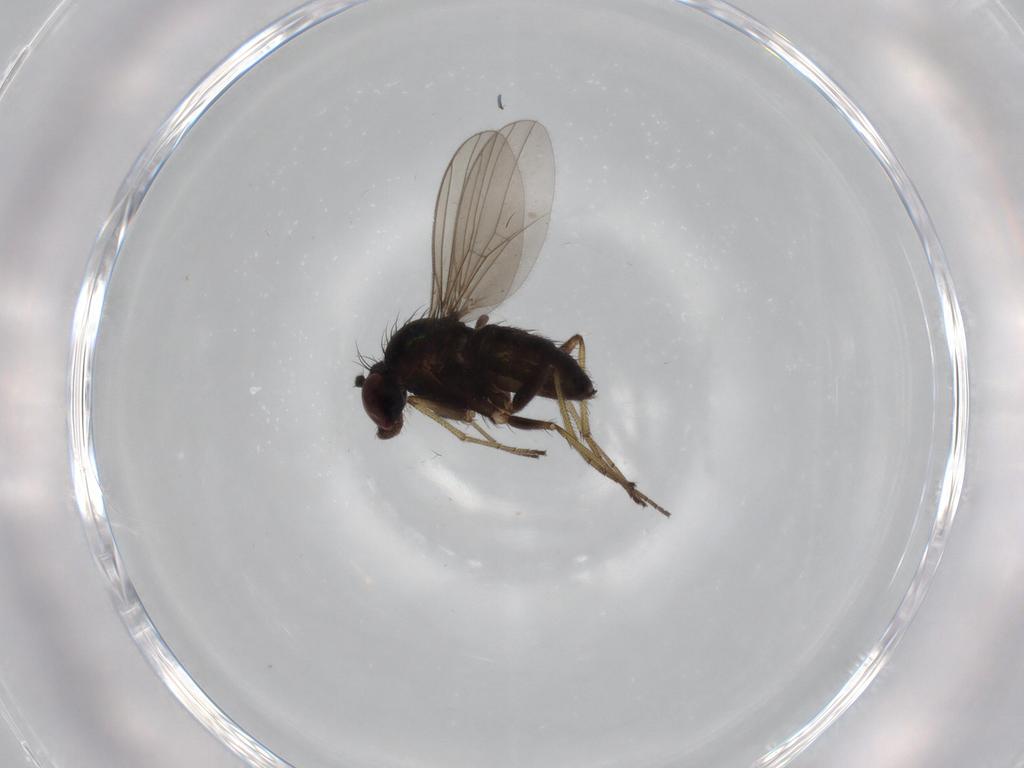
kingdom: Animalia
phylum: Arthropoda
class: Insecta
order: Diptera
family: Dolichopodidae
